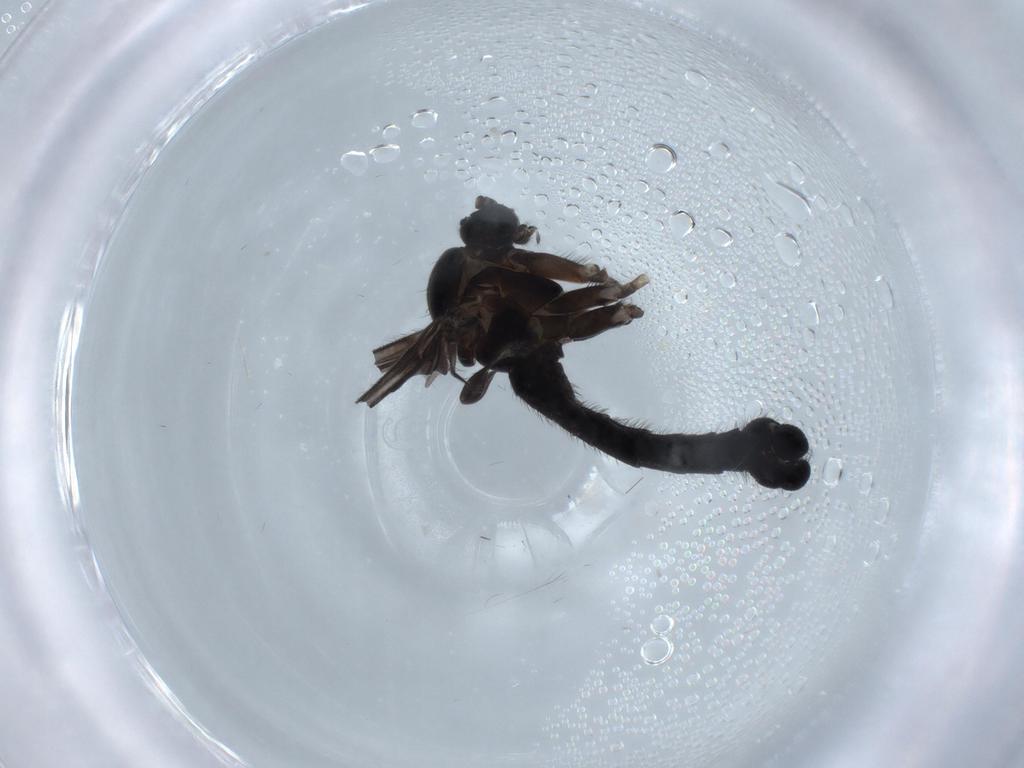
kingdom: Animalia
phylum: Arthropoda
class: Insecta
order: Diptera
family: Sciaridae
